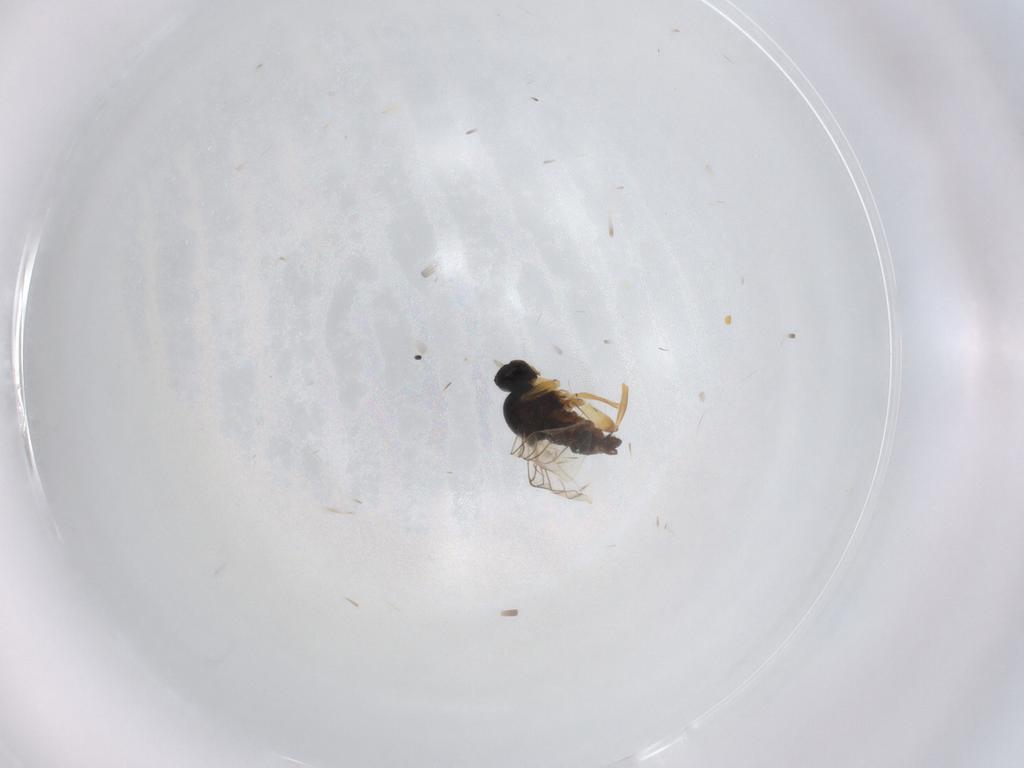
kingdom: Animalia
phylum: Arthropoda
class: Insecta
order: Diptera
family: Hybotidae
